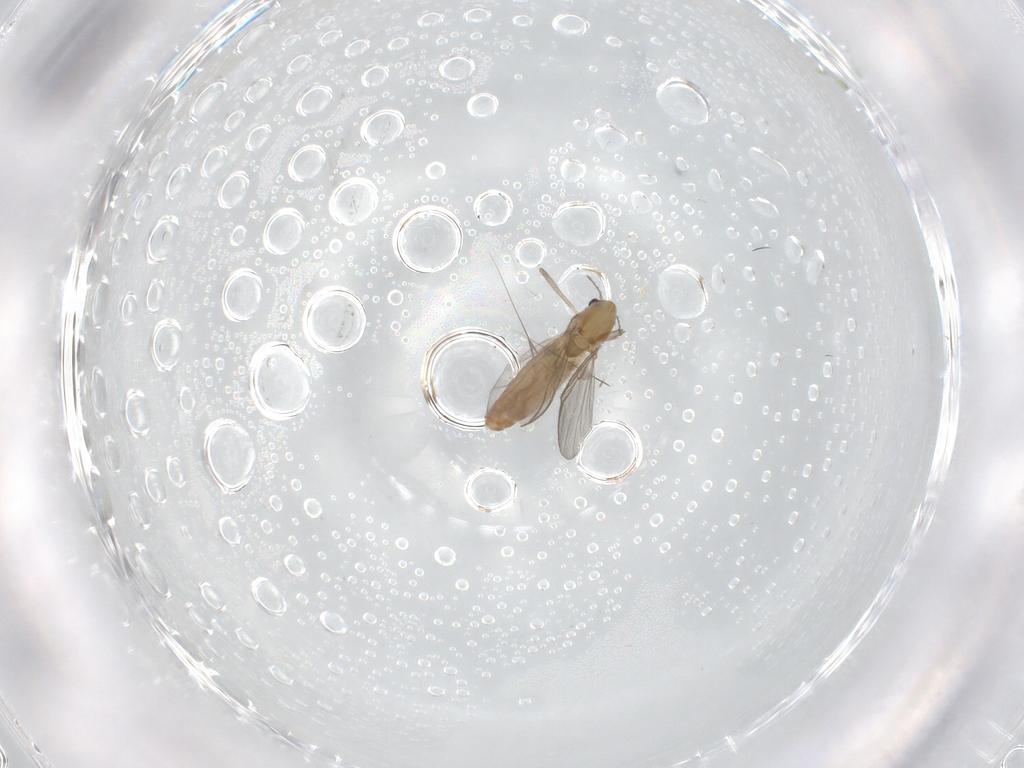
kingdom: Animalia
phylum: Arthropoda
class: Insecta
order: Diptera
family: Chironomidae
